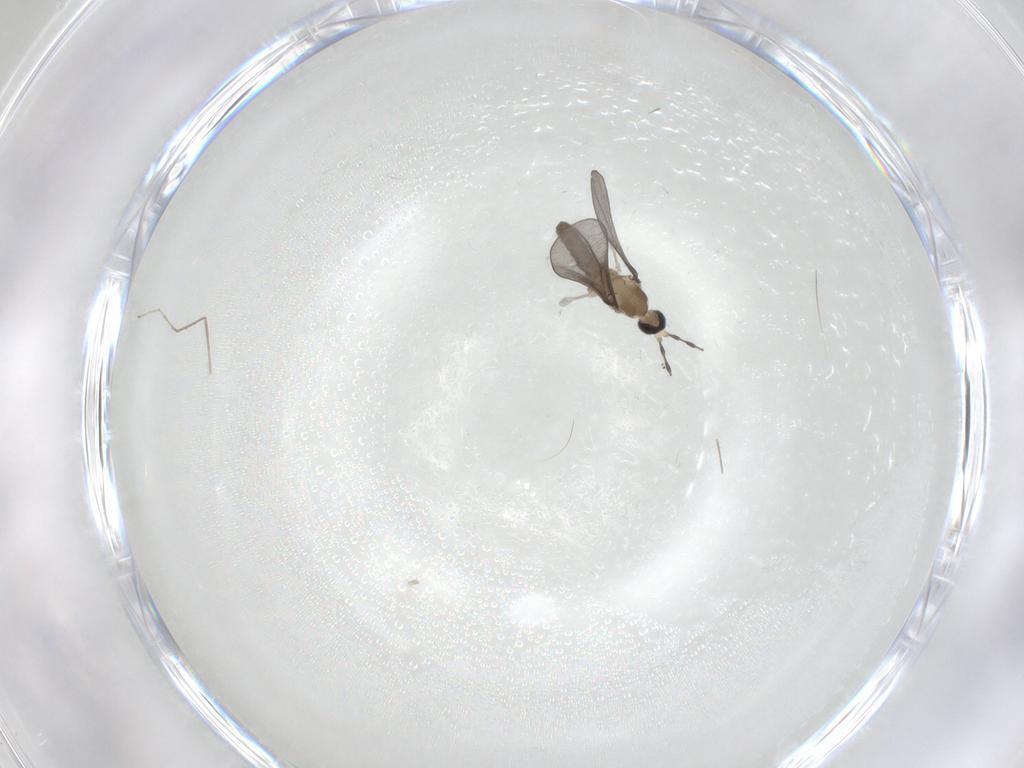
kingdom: Animalia
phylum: Arthropoda
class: Insecta
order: Diptera
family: Cecidomyiidae
